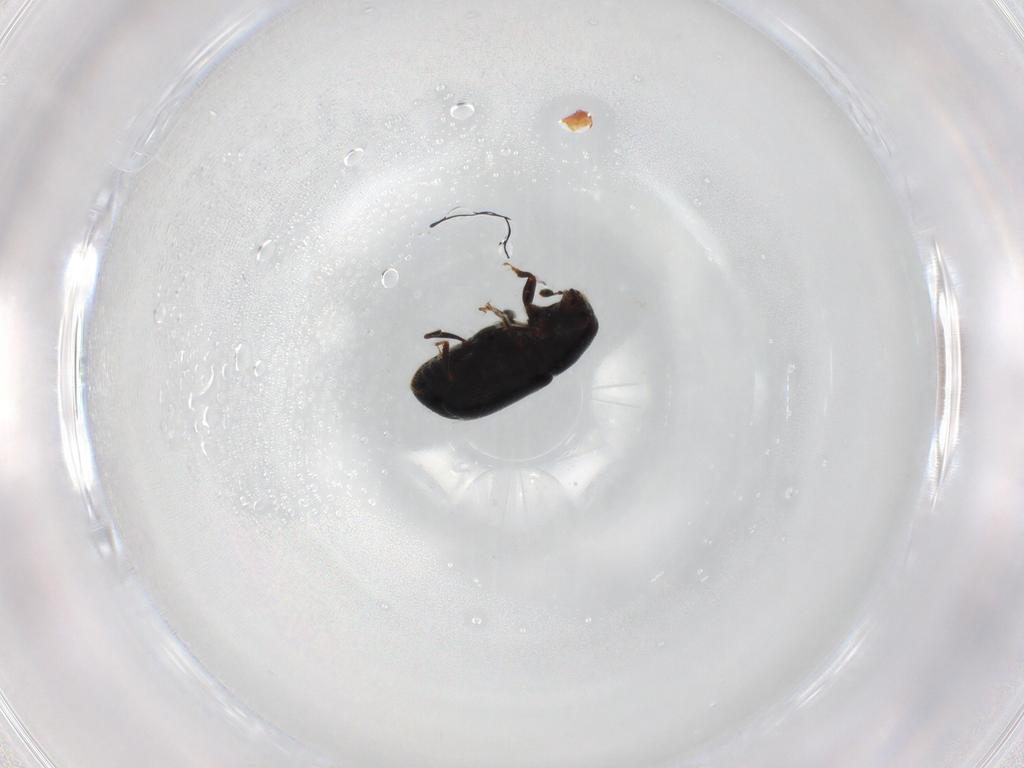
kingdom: Animalia
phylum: Arthropoda
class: Insecta
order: Coleoptera
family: Curculionidae
